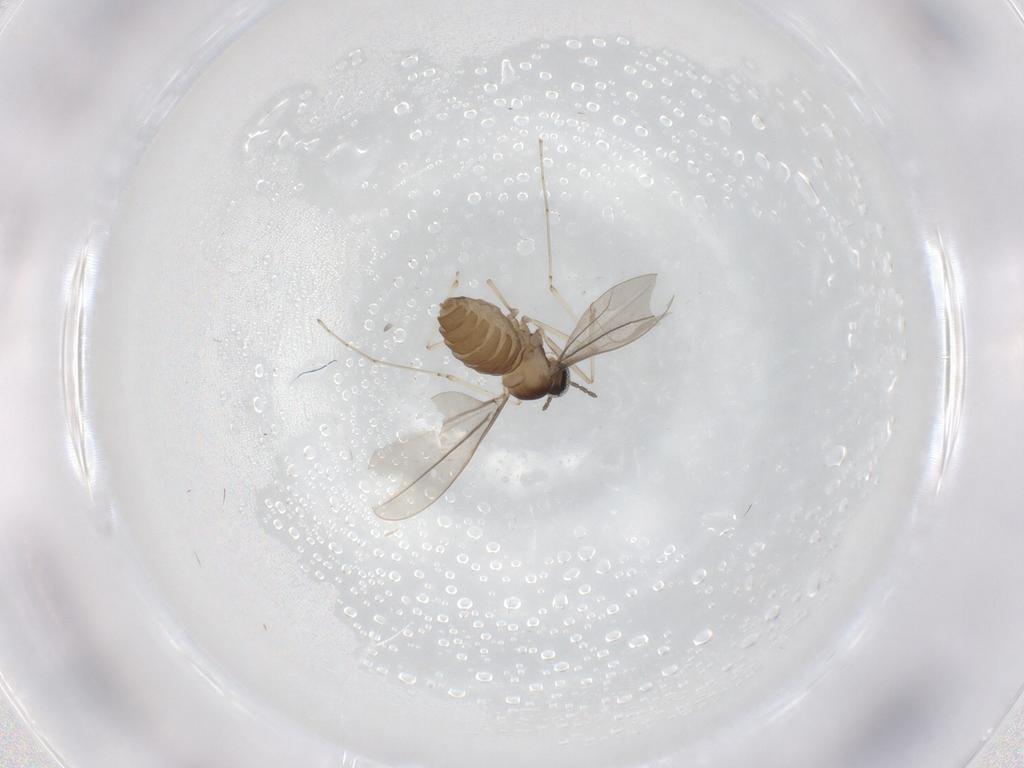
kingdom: Animalia
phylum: Arthropoda
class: Insecta
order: Diptera
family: Cecidomyiidae
